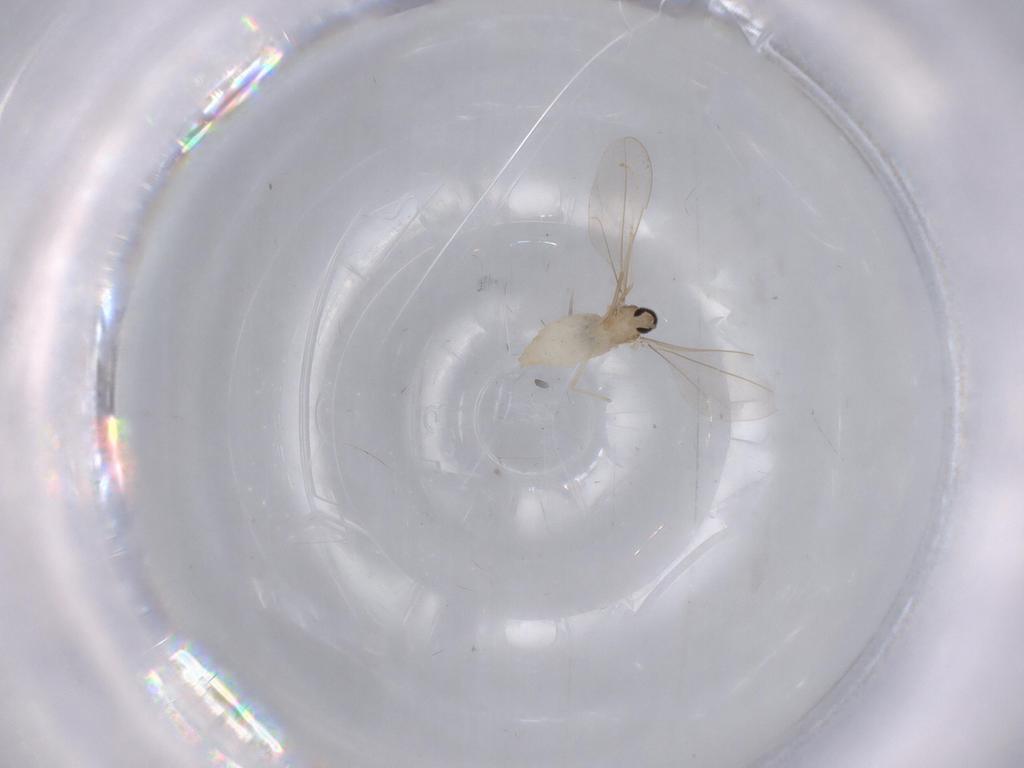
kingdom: Animalia
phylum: Arthropoda
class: Insecta
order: Diptera
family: Cecidomyiidae
